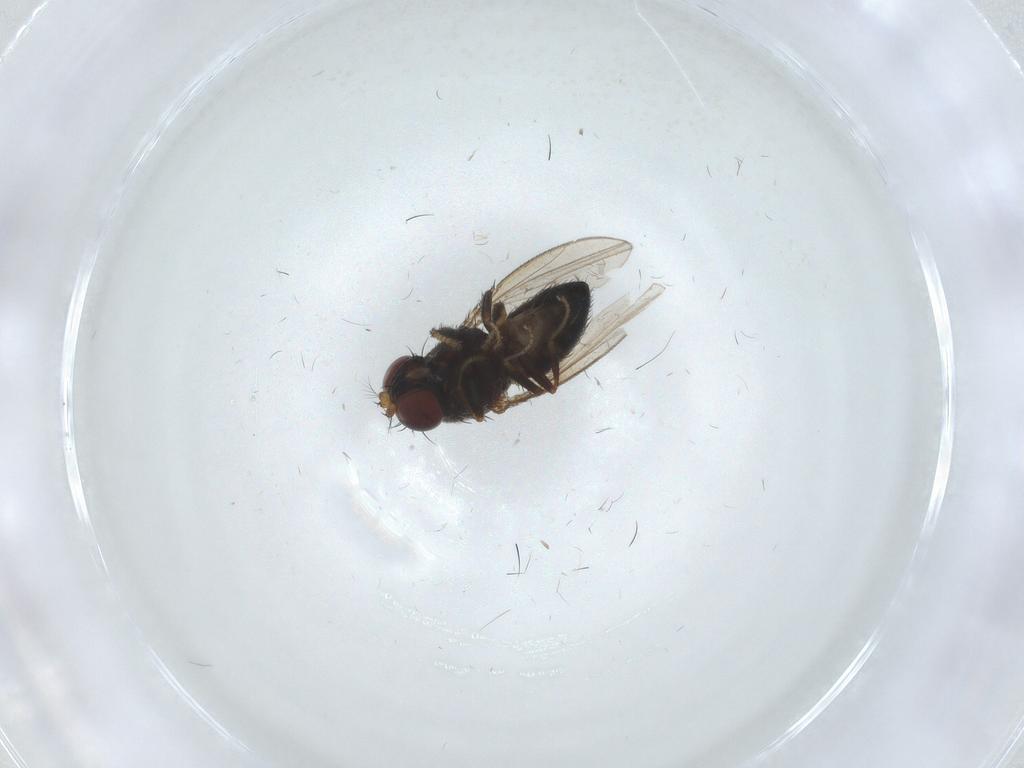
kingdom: Animalia
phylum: Arthropoda
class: Insecta
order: Diptera
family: Ephydridae
